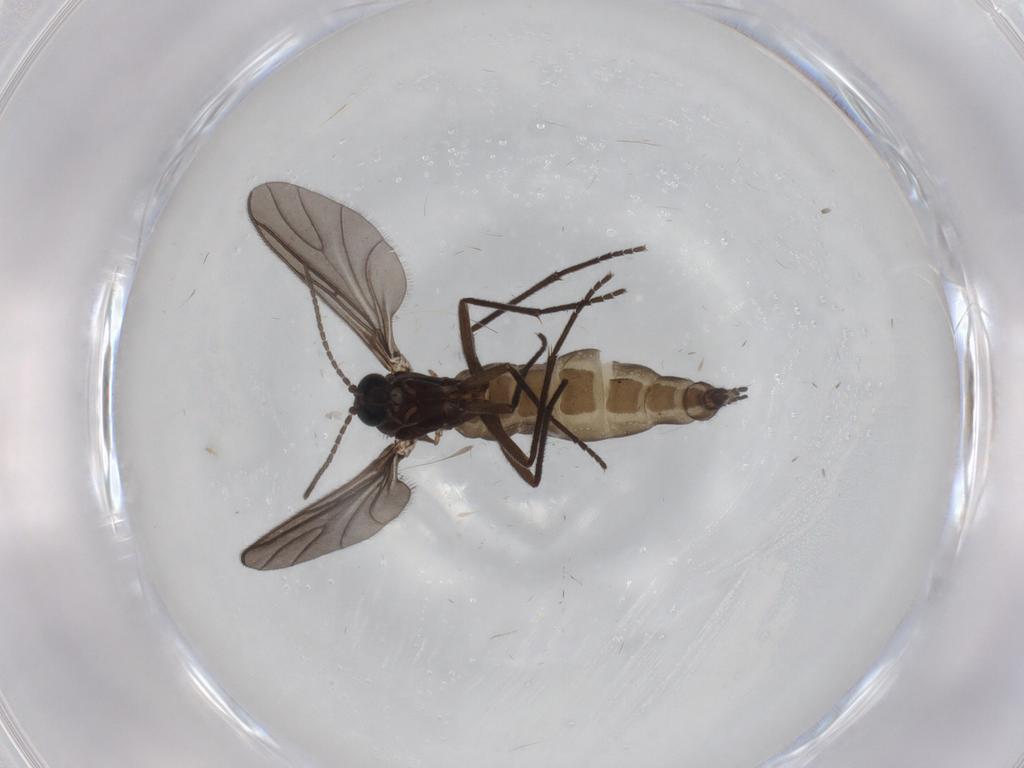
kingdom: Animalia
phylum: Arthropoda
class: Insecta
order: Diptera
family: Sciaridae
